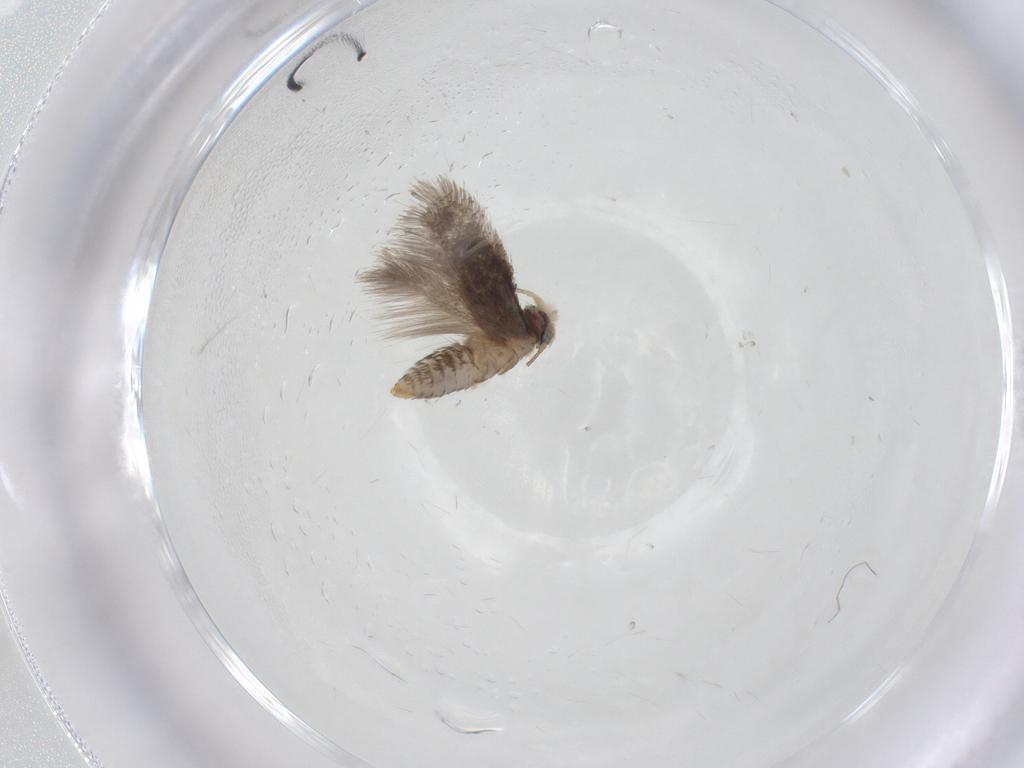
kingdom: Animalia
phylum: Arthropoda
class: Insecta
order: Lepidoptera
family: Nepticulidae
